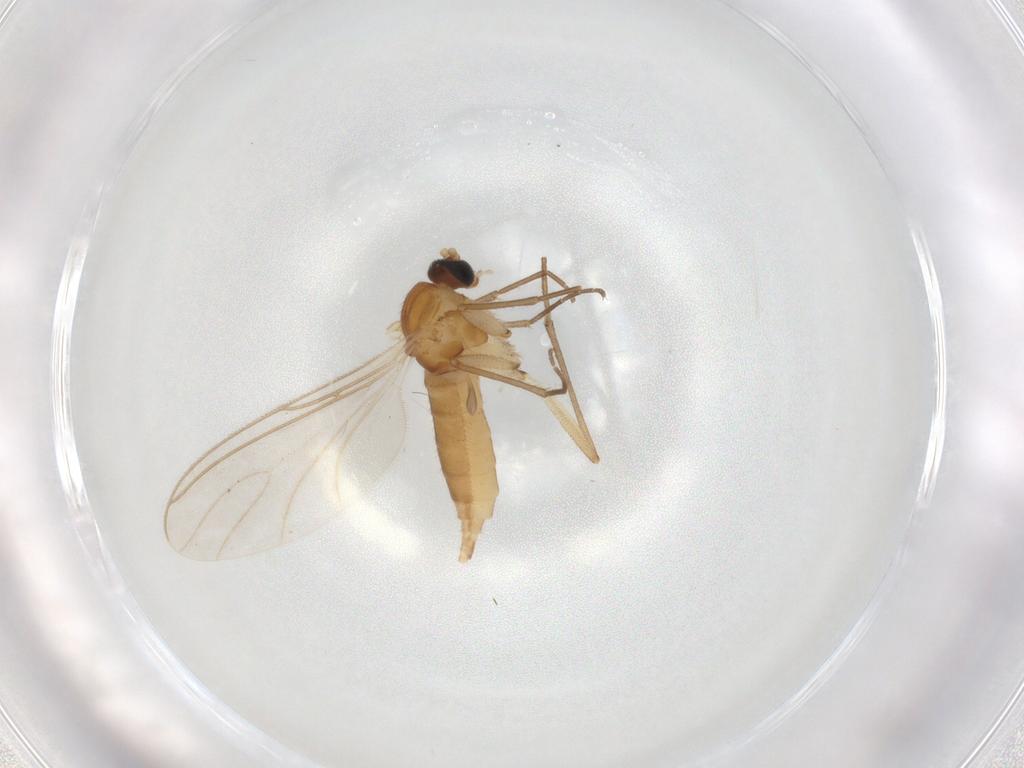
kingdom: Animalia
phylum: Arthropoda
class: Insecta
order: Diptera
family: Sciaridae
